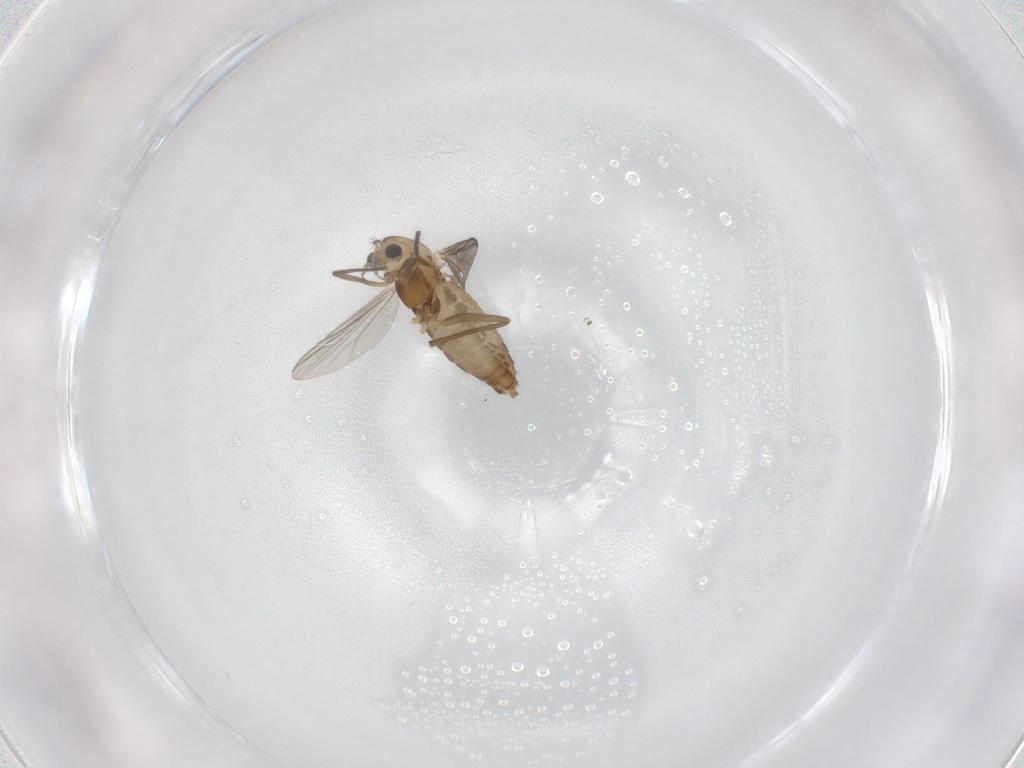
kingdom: Animalia
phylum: Arthropoda
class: Insecta
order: Diptera
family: Chironomidae
